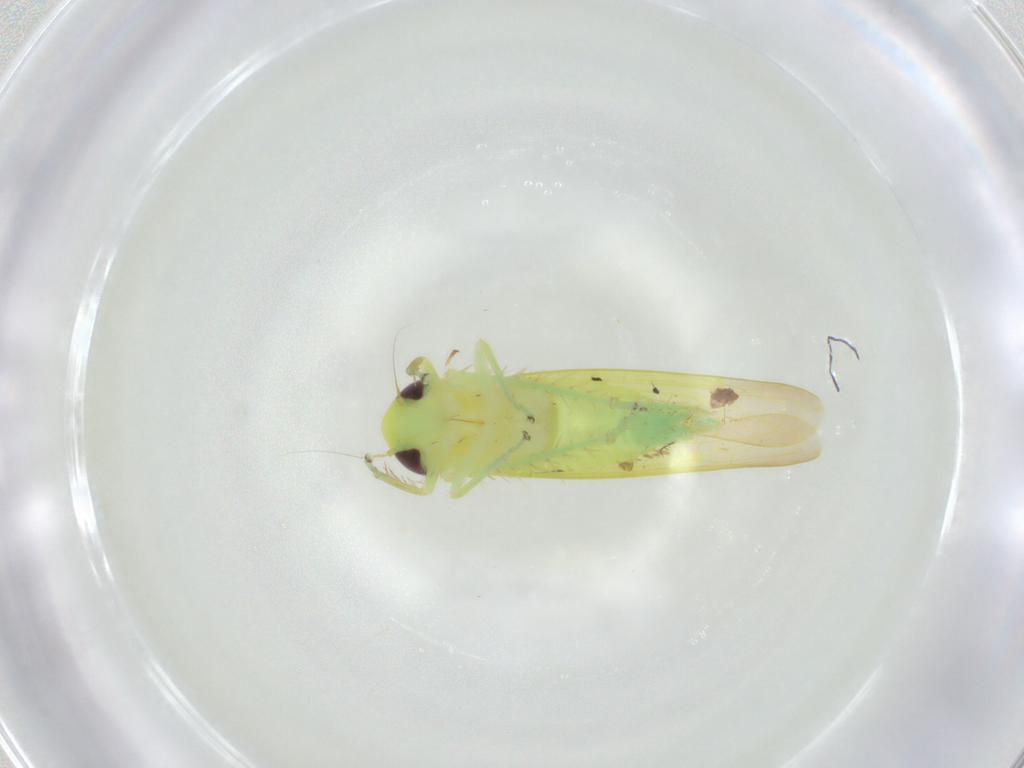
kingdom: Animalia
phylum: Arthropoda
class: Insecta
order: Hemiptera
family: Cicadellidae
